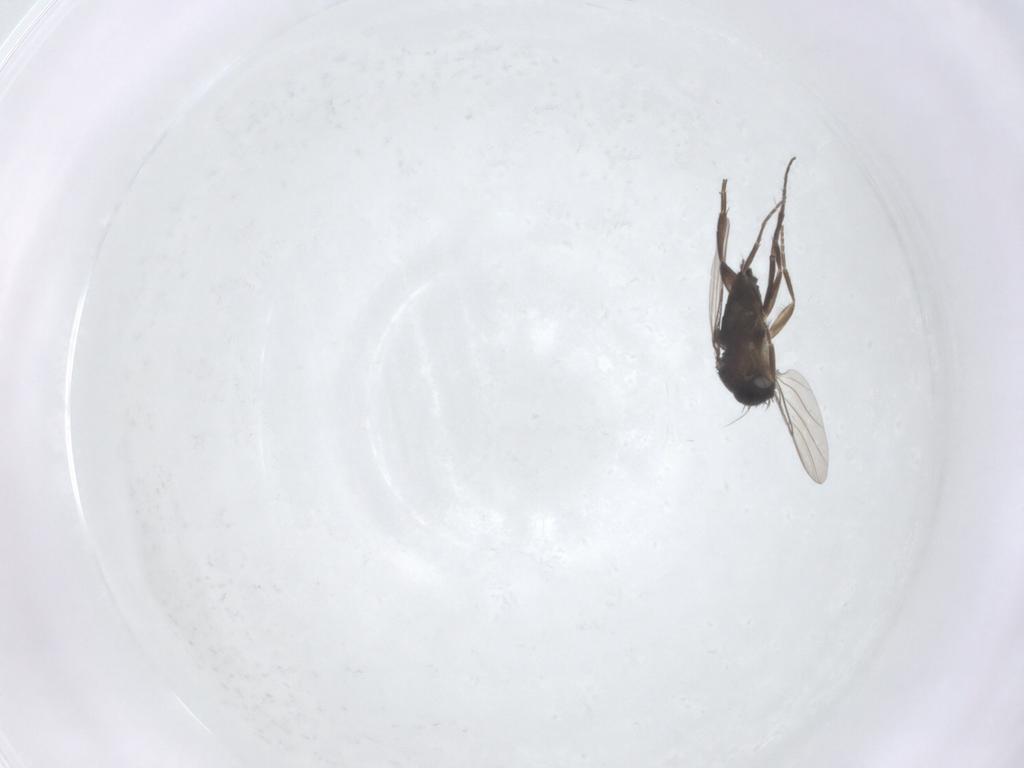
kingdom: Animalia
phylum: Arthropoda
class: Insecta
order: Diptera
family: Phoridae
